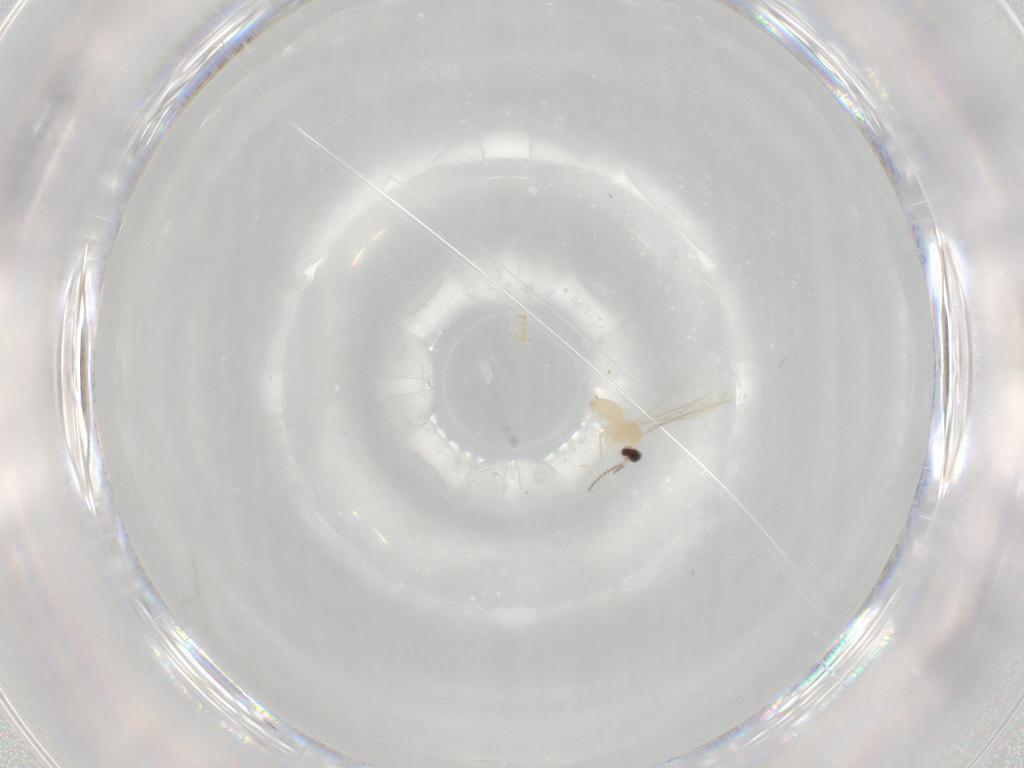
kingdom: Animalia
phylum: Arthropoda
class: Insecta
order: Diptera
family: Cecidomyiidae
